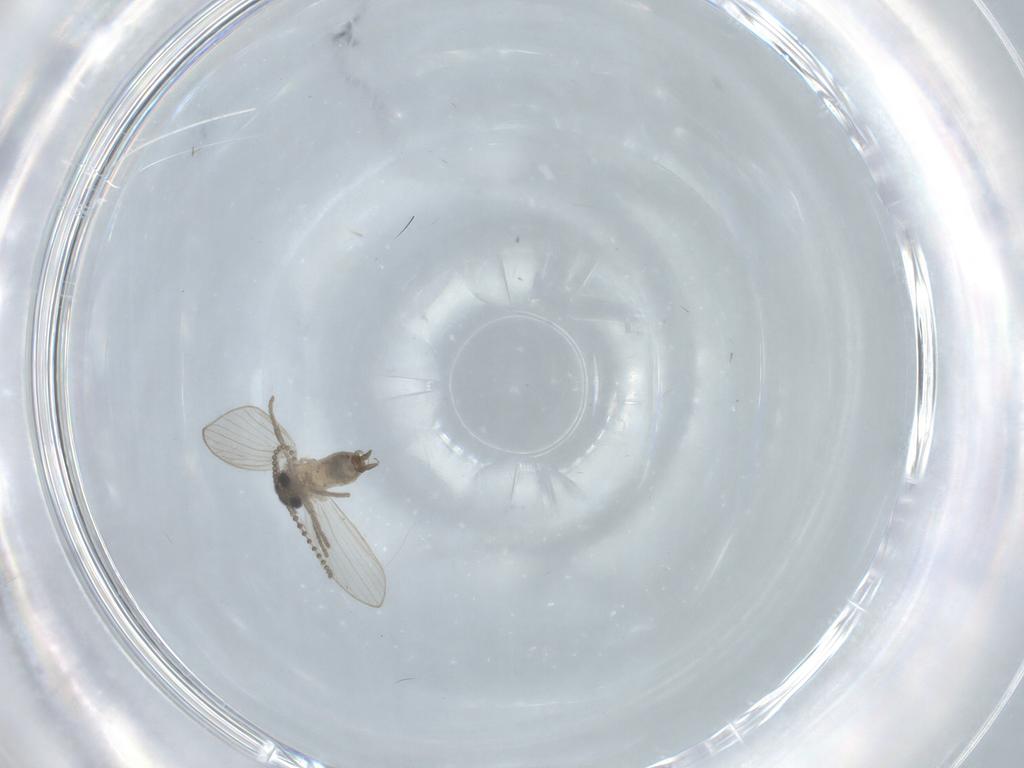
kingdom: Animalia
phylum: Arthropoda
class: Insecta
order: Diptera
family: Psychodidae
